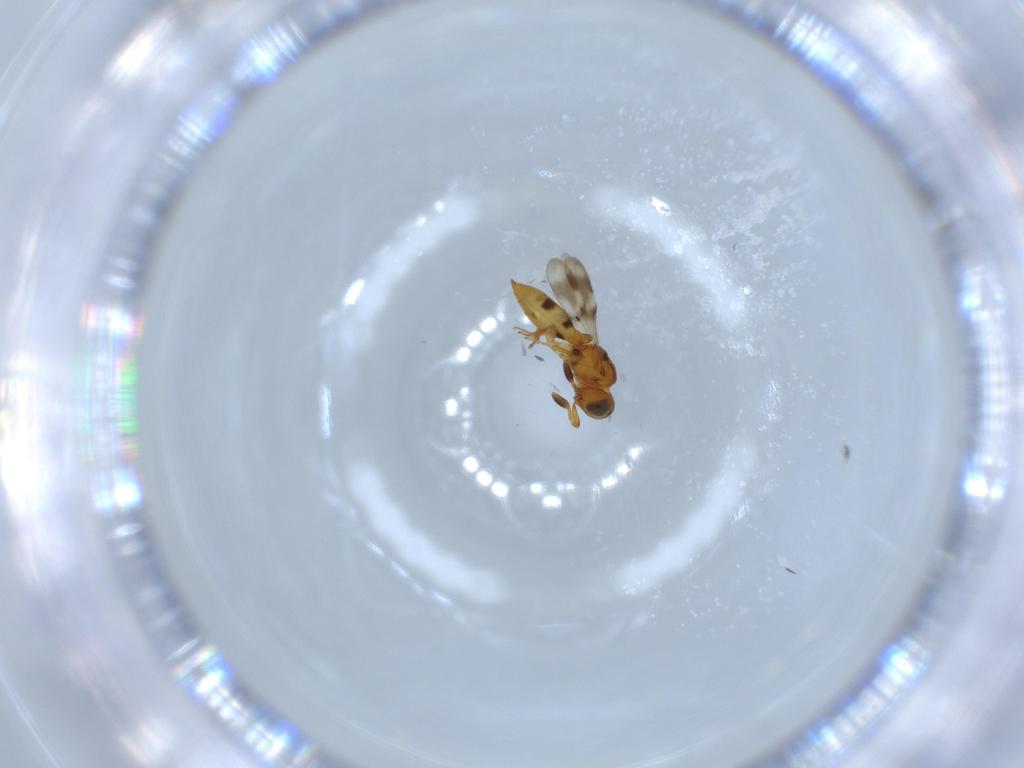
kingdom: Animalia
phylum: Arthropoda
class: Insecta
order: Hymenoptera
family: Scelionidae
